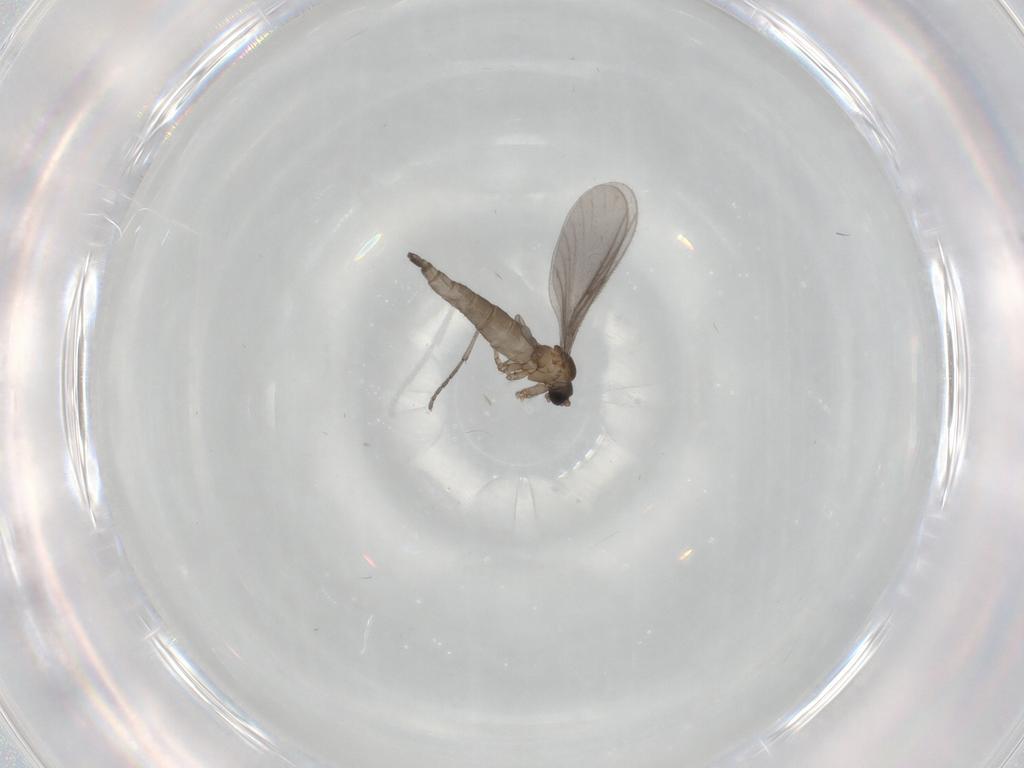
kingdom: Animalia
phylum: Arthropoda
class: Insecta
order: Diptera
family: Sciaridae
